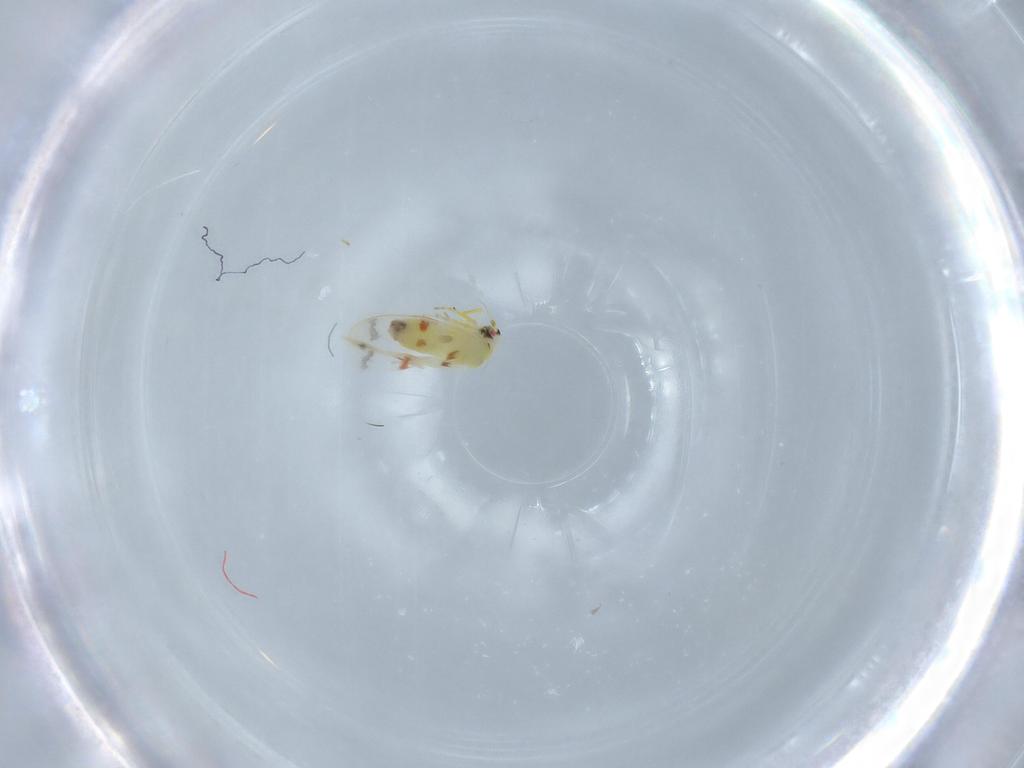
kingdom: Animalia
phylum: Arthropoda
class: Insecta
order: Hemiptera
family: Aleyrodidae
